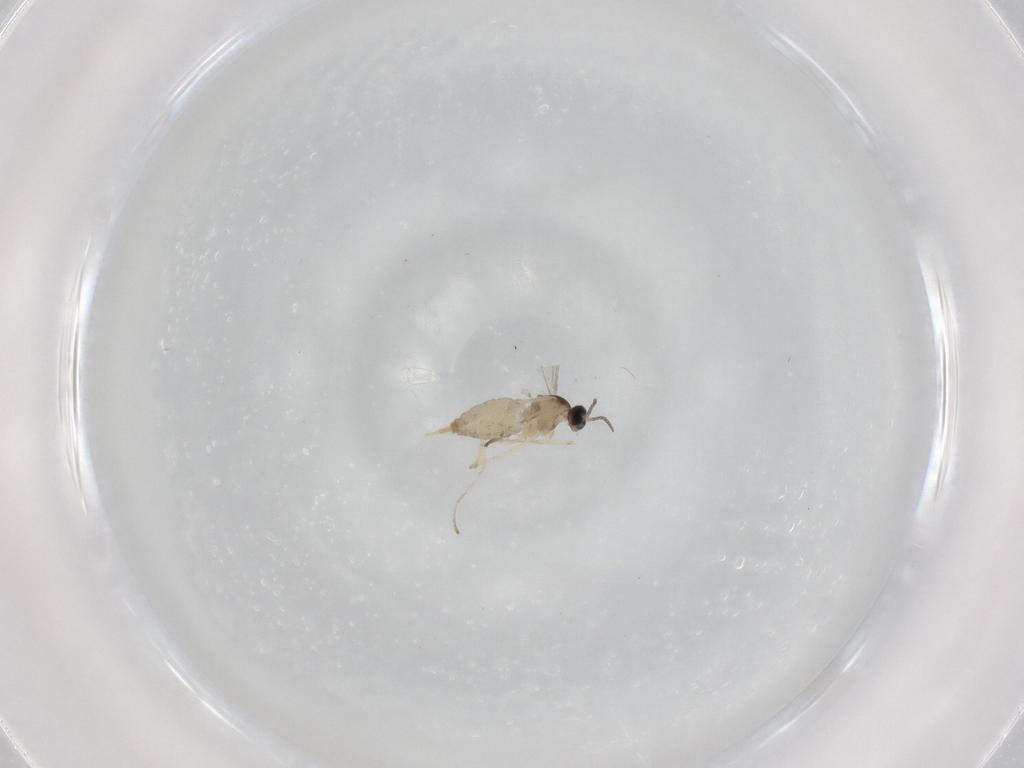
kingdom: Animalia
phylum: Arthropoda
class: Insecta
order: Diptera
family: Cecidomyiidae
